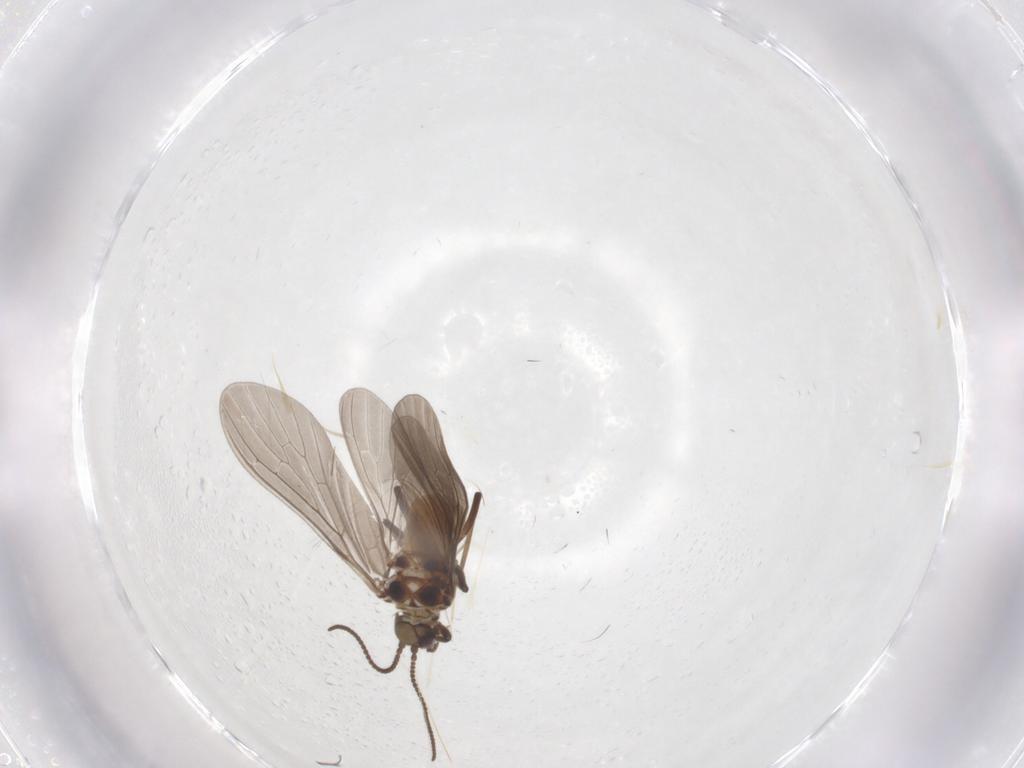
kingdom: Animalia
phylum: Arthropoda
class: Insecta
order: Neuroptera
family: Coniopterygidae
